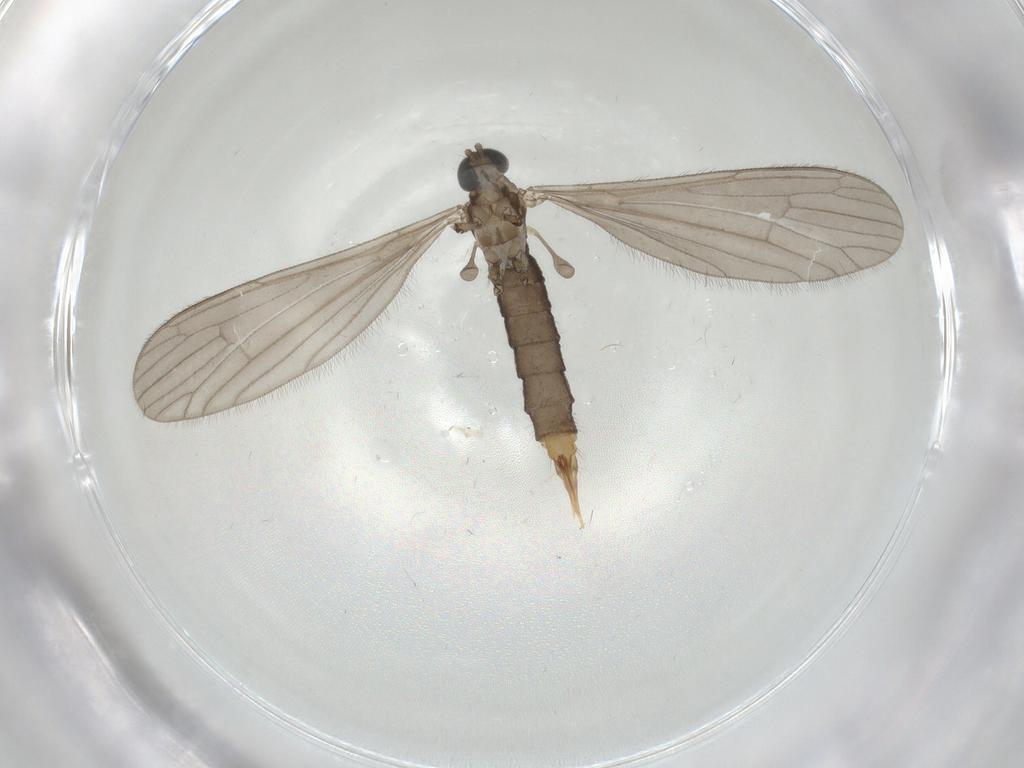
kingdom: Animalia
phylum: Arthropoda
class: Insecta
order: Diptera
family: Limoniidae
